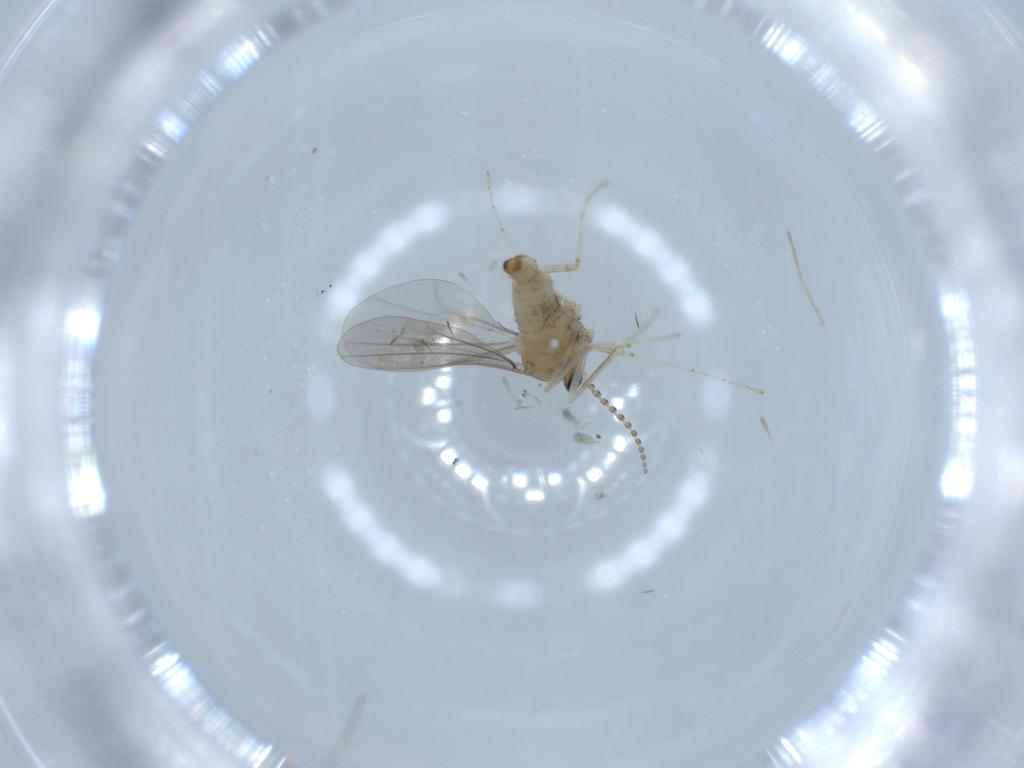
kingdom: Animalia
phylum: Arthropoda
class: Insecta
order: Diptera
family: Cecidomyiidae
